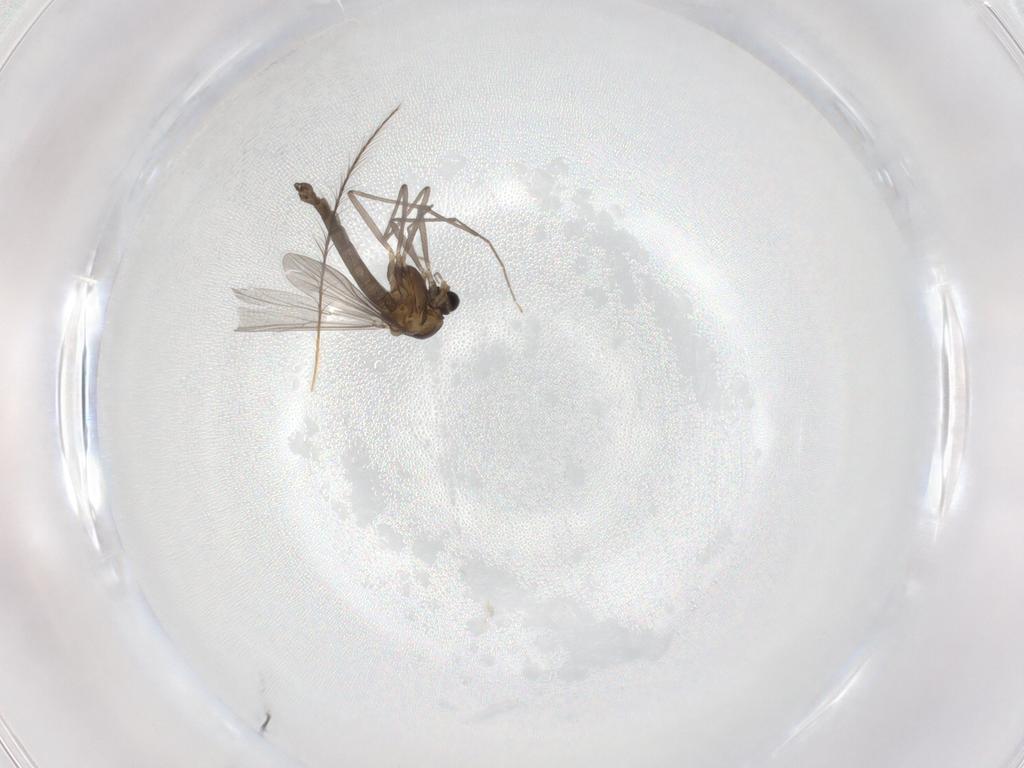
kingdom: Animalia
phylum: Arthropoda
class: Insecta
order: Diptera
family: Chironomidae
